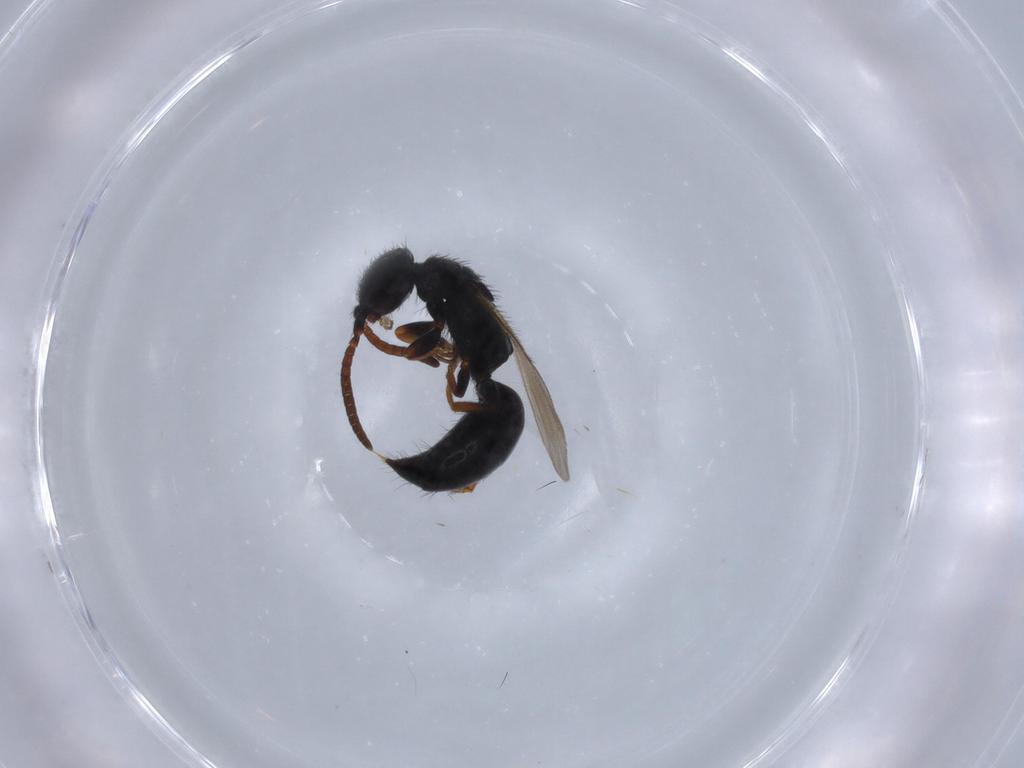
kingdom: Animalia
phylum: Arthropoda
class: Insecta
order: Hymenoptera
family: Bethylidae
